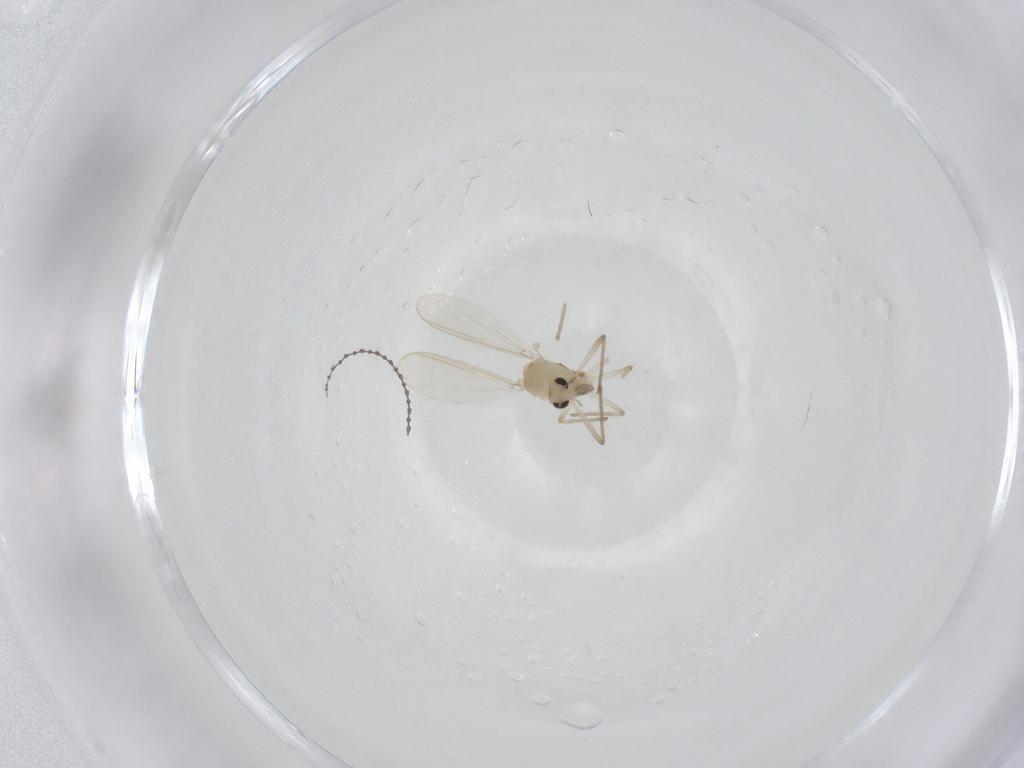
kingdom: Animalia
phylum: Arthropoda
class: Insecta
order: Diptera
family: Chironomidae
